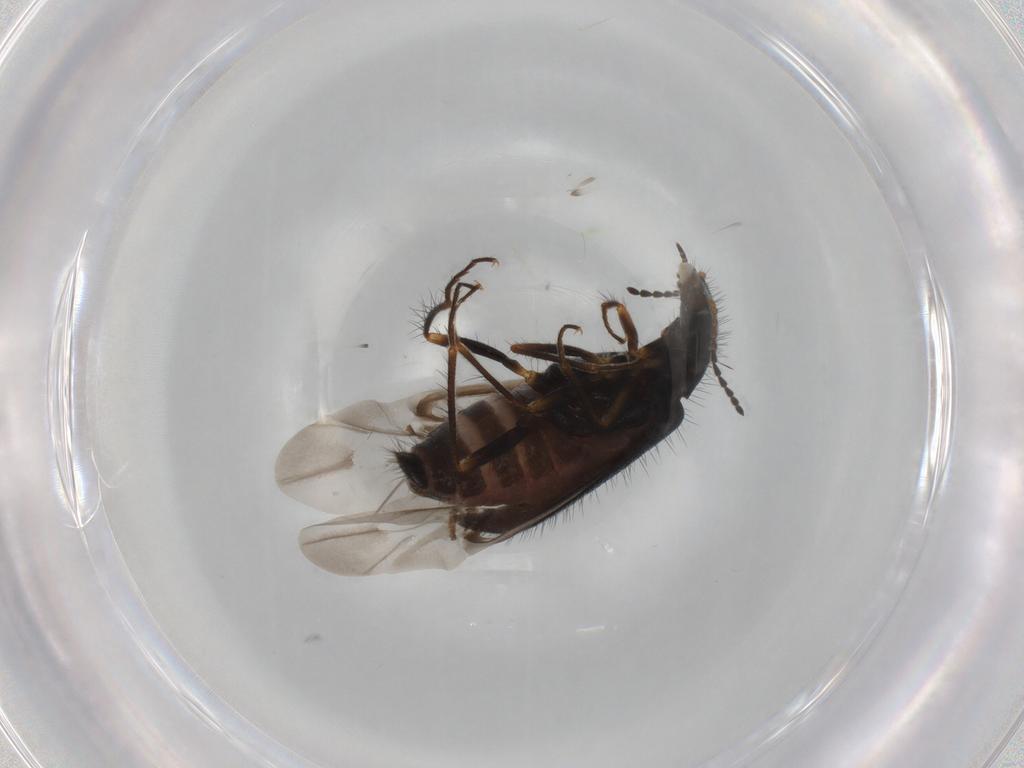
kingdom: Animalia
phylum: Arthropoda
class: Insecta
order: Coleoptera
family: Melyridae
